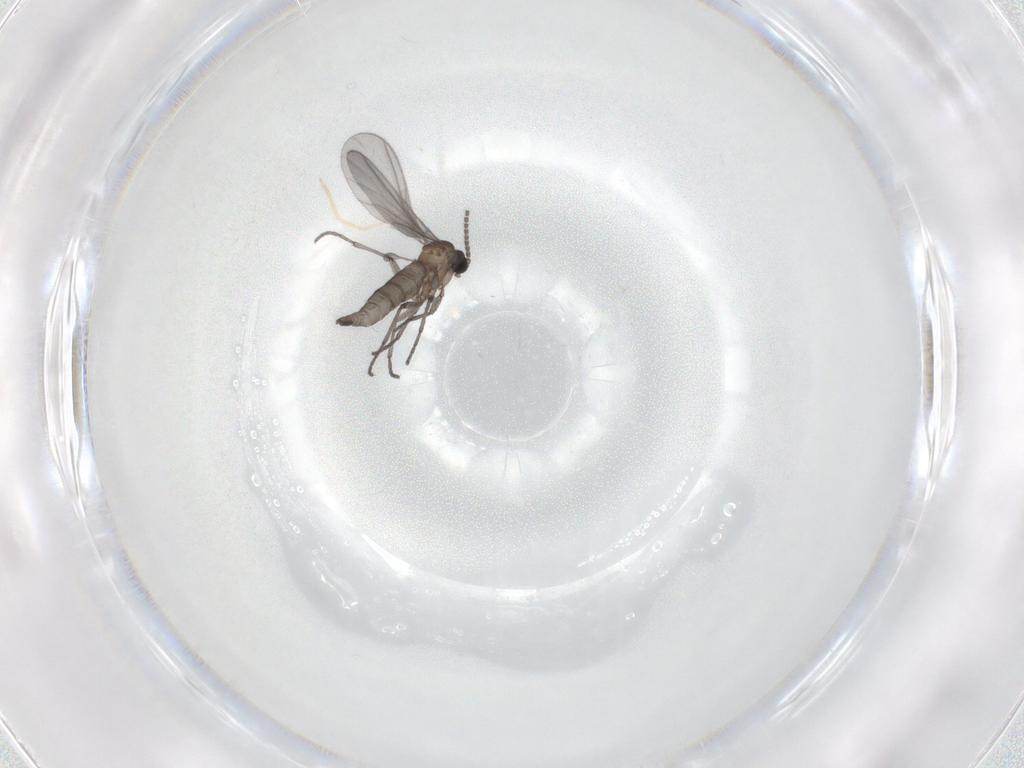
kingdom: Animalia
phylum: Arthropoda
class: Insecta
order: Diptera
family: Sciaridae
